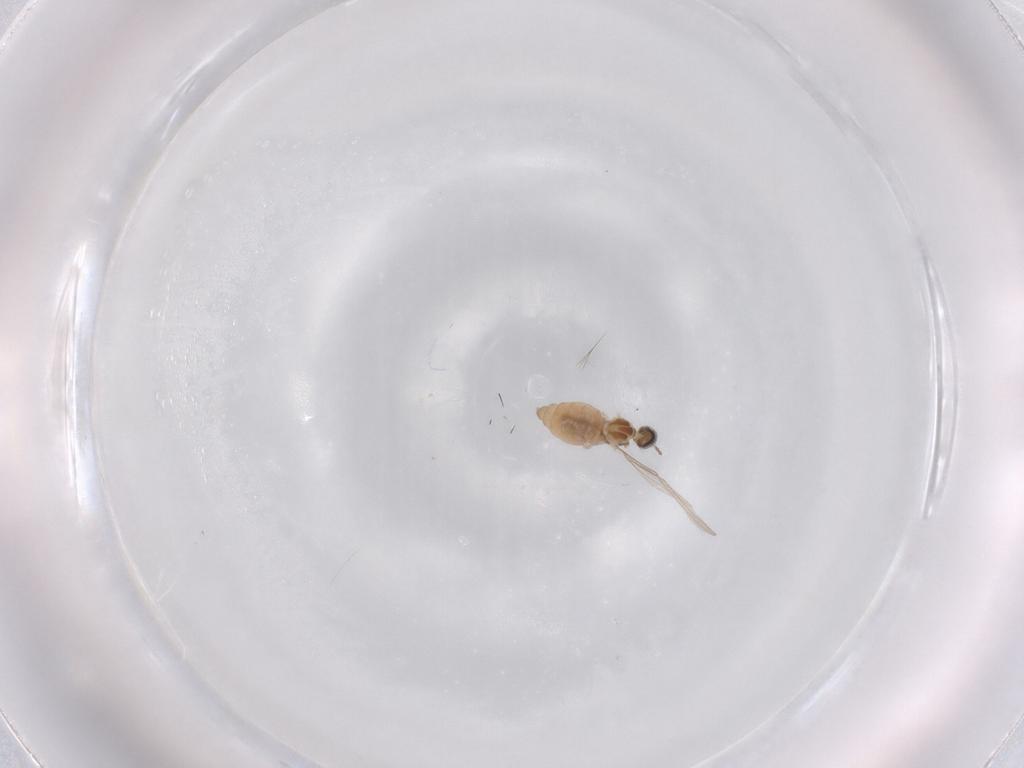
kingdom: Animalia
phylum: Arthropoda
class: Insecta
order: Diptera
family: Cecidomyiidae
